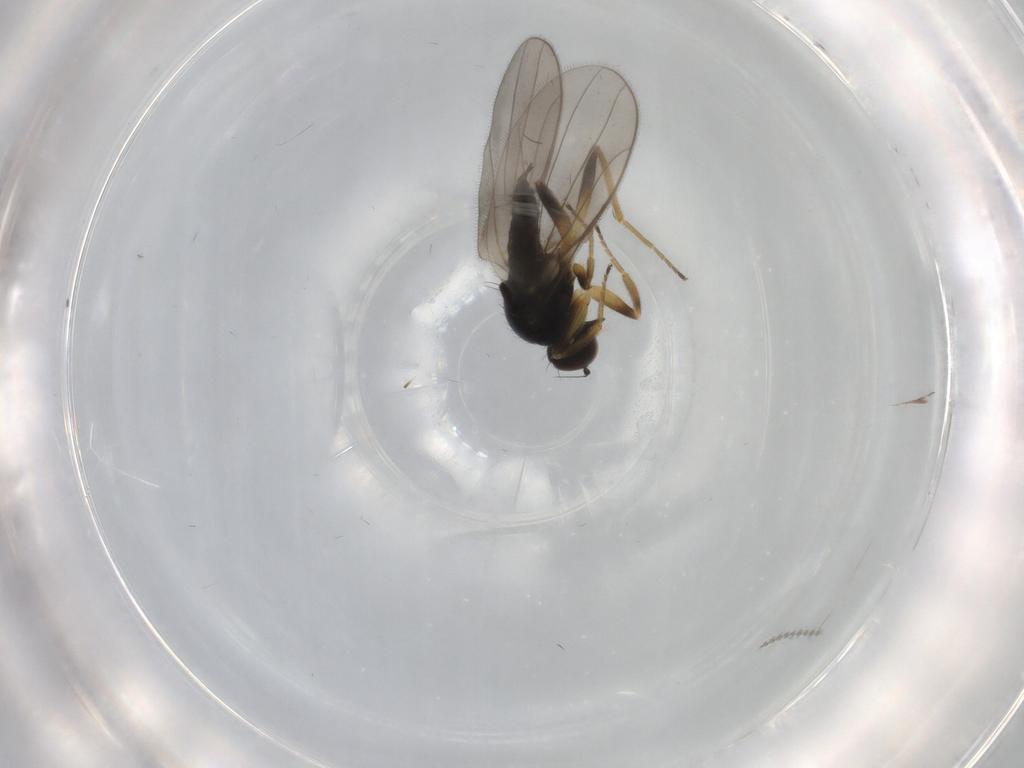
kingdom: Animalia
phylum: Arthropoda
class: Insecta
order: Diptera
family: Hybotidae
